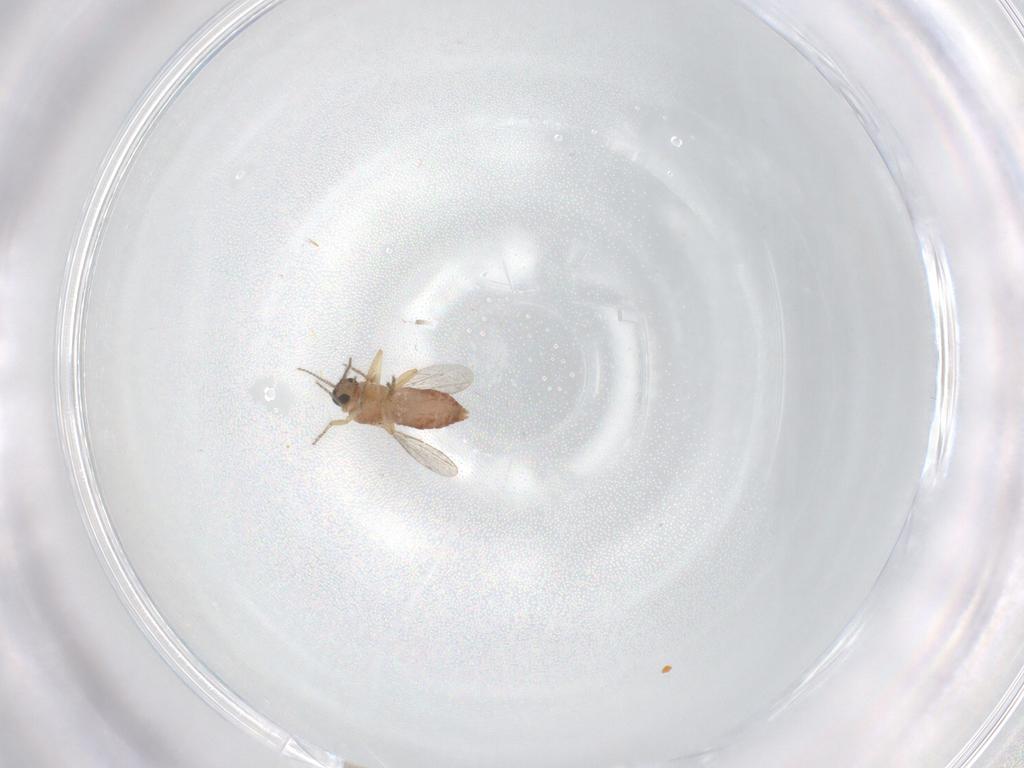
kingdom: Animalia
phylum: Arthropoda
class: Insecta
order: Diptera
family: Ceratopogonidae
